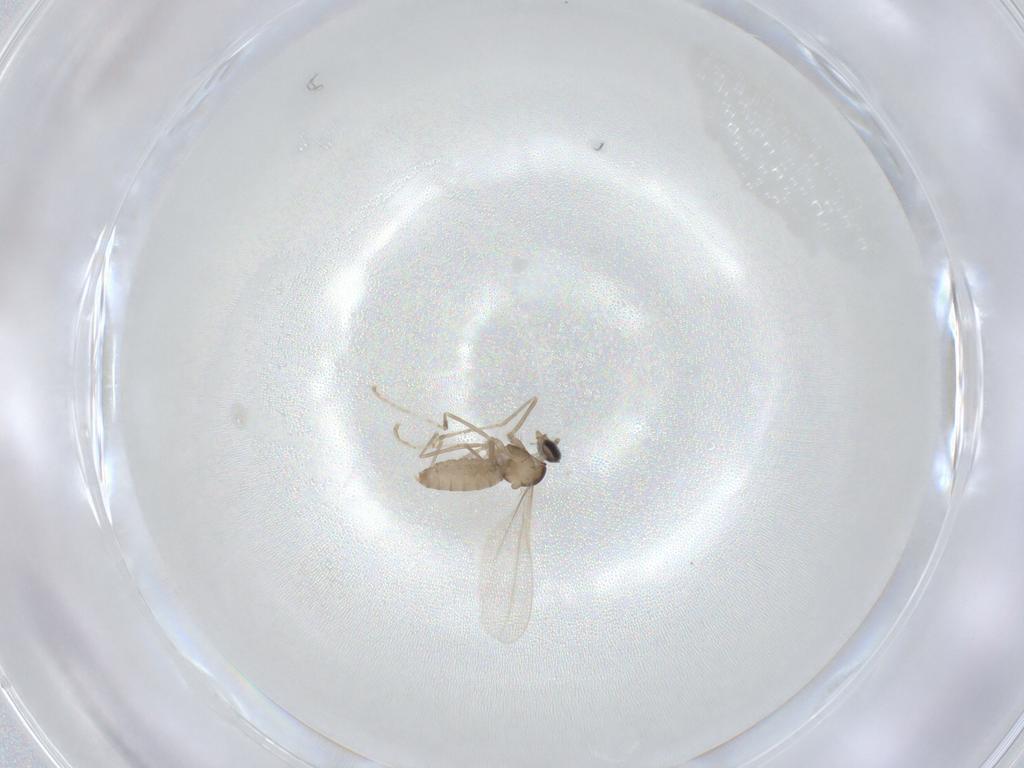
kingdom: Animalia
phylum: Arthropoda
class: Insecta
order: Diptera
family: Cecidomyiidae
